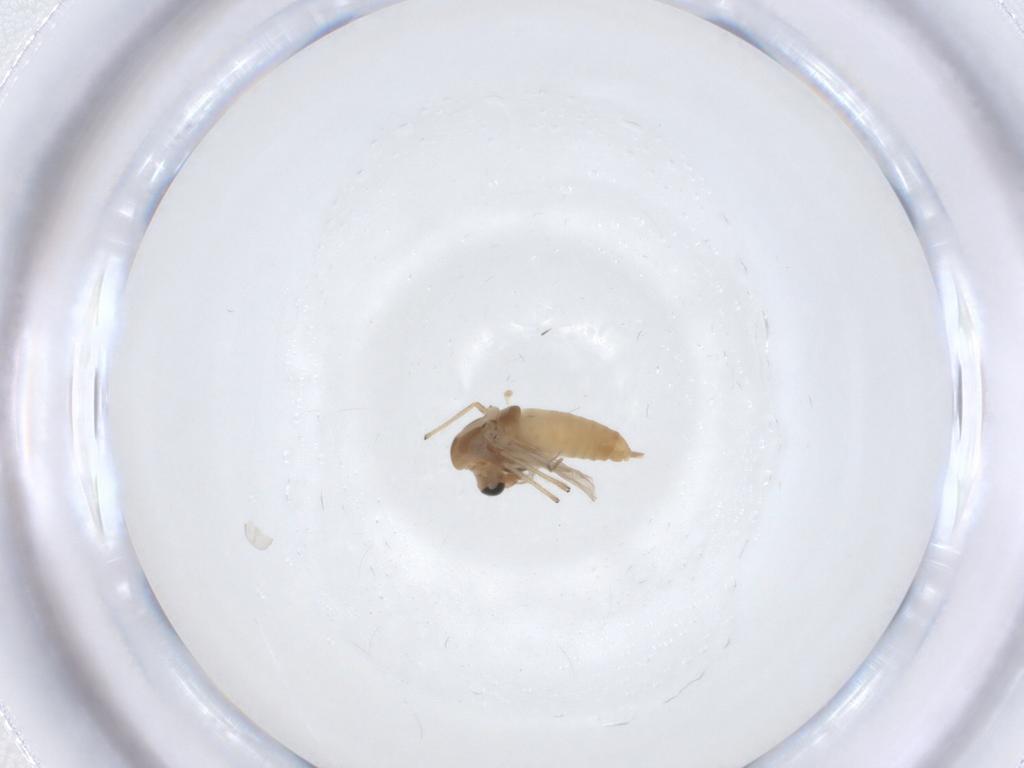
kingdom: Animalia
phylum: Arthropoda
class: Insecta
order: Diptera
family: Chironomidae
